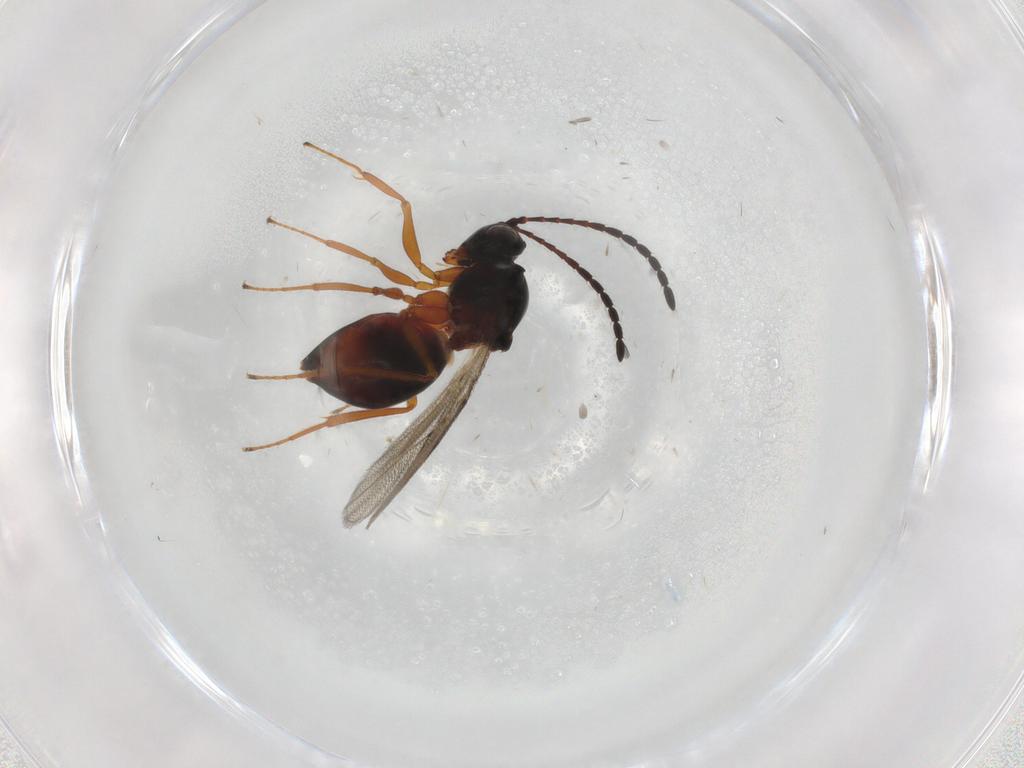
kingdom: Animalia
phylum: Arthropoda
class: Insecta
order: Hymenoptera
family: Figitidae
